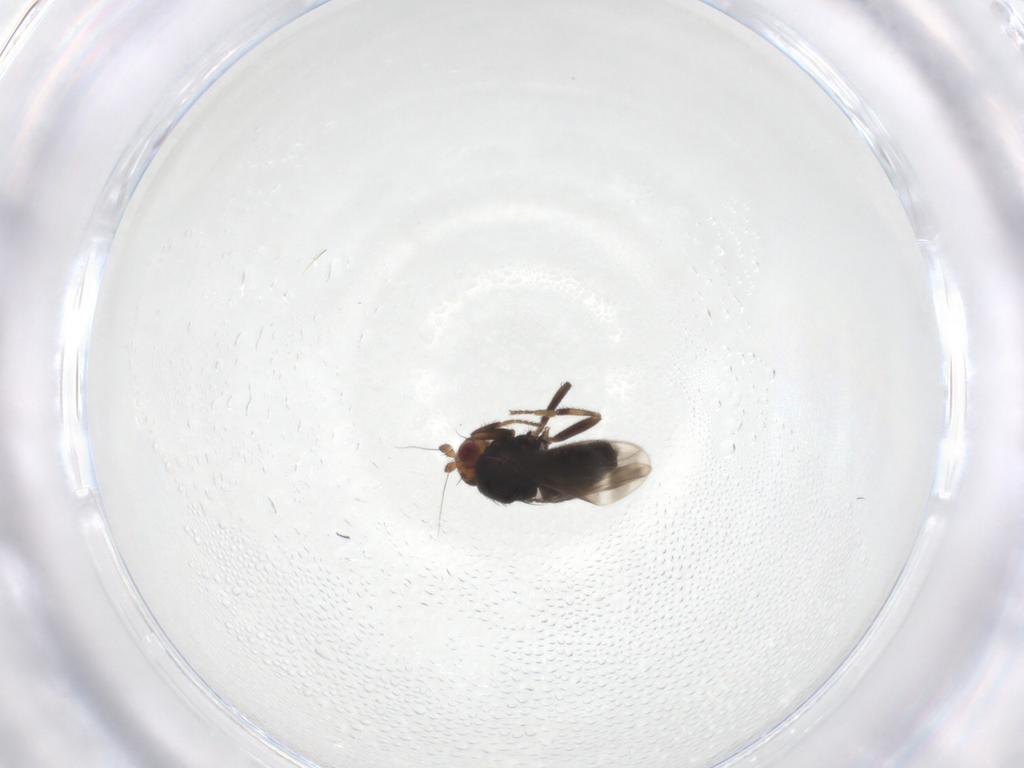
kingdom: Animalia
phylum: Arthropoda
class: Insecta
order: Diptera
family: Sphaeroceridae
